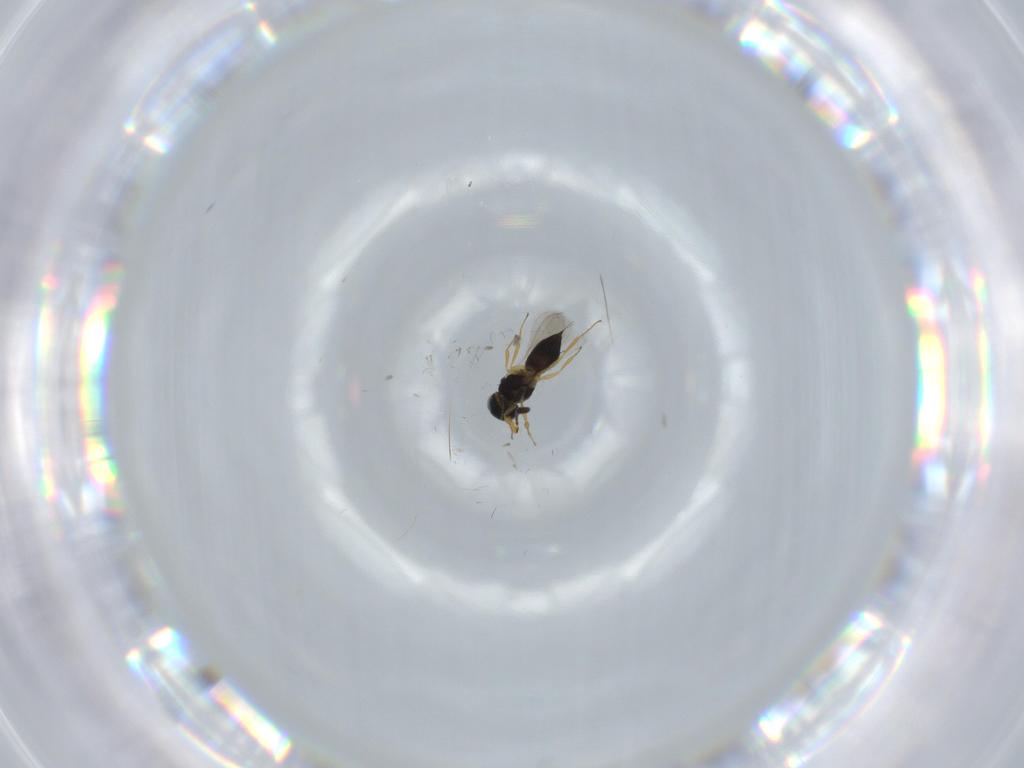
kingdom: Animalia
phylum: Arthropoda
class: Insecta
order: Hymenoptera
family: Scelionidae
